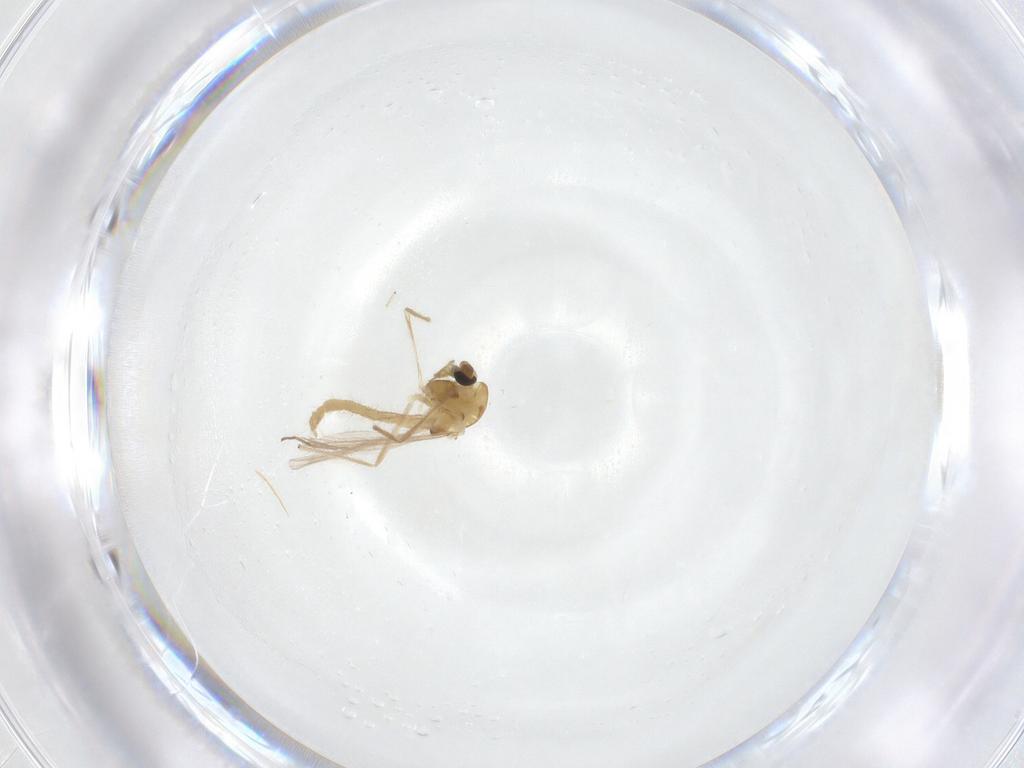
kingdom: Animalia
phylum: Arthropoda
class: Insecta
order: Diptera
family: Chironomidae
